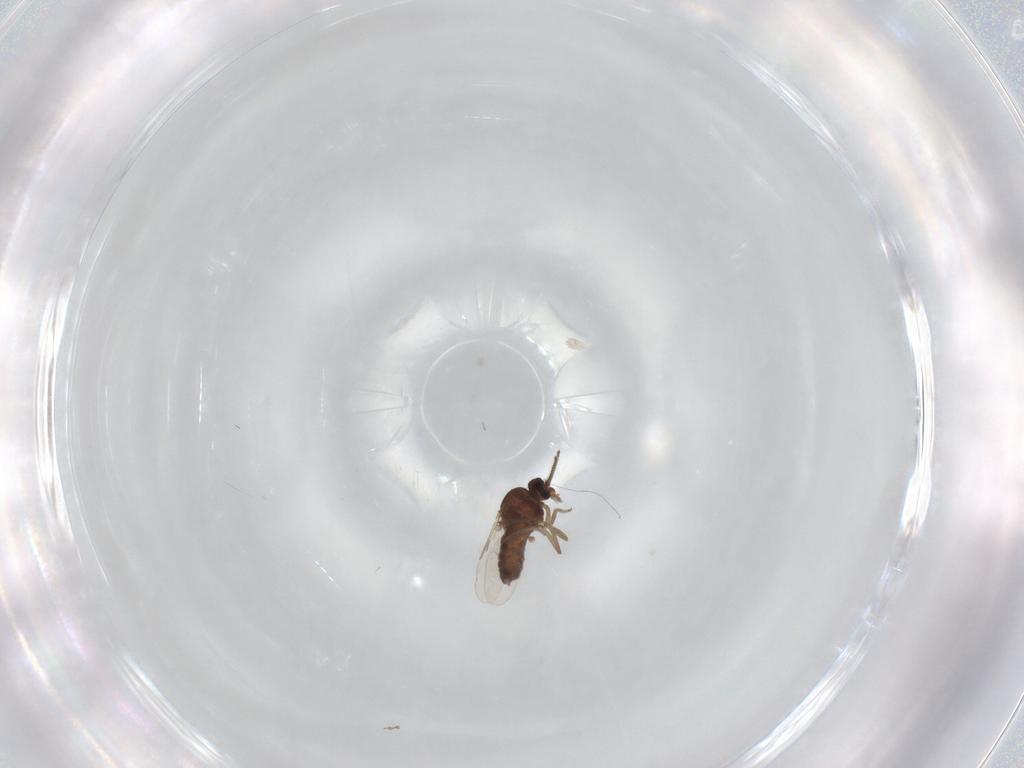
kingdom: Animalia
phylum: Arthropoda
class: Insecta
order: Diptera
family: Ceratopogonidae
